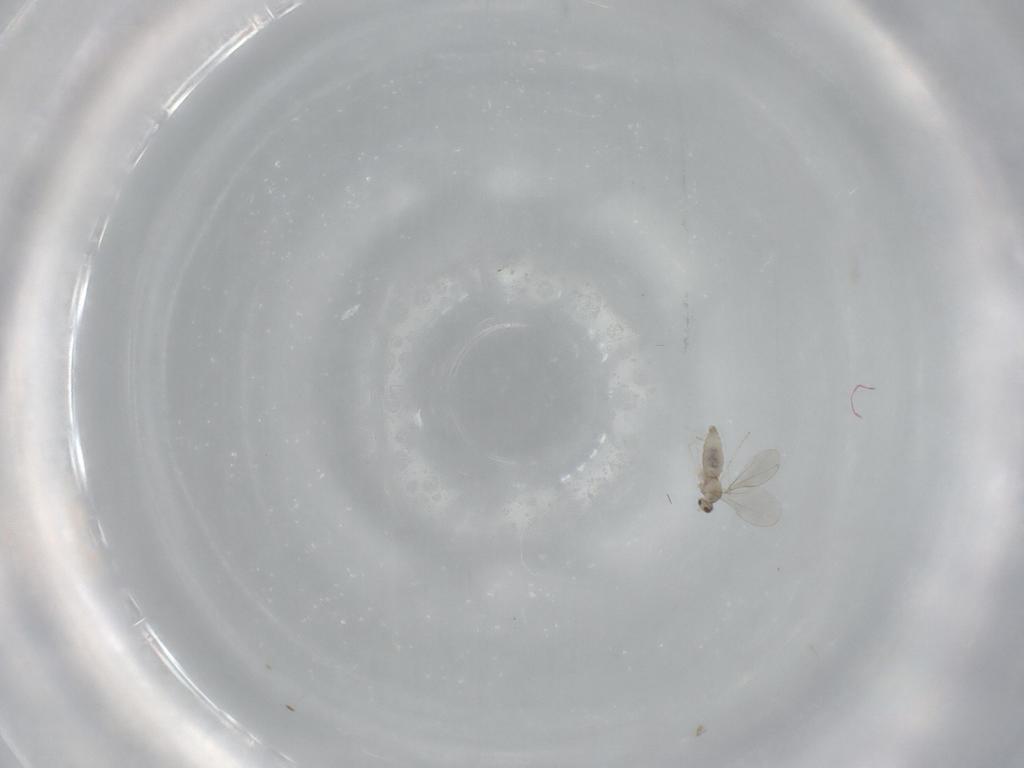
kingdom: Animalia
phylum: Arthropoda
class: Insecta
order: Diptera
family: Cecidomyiidae
